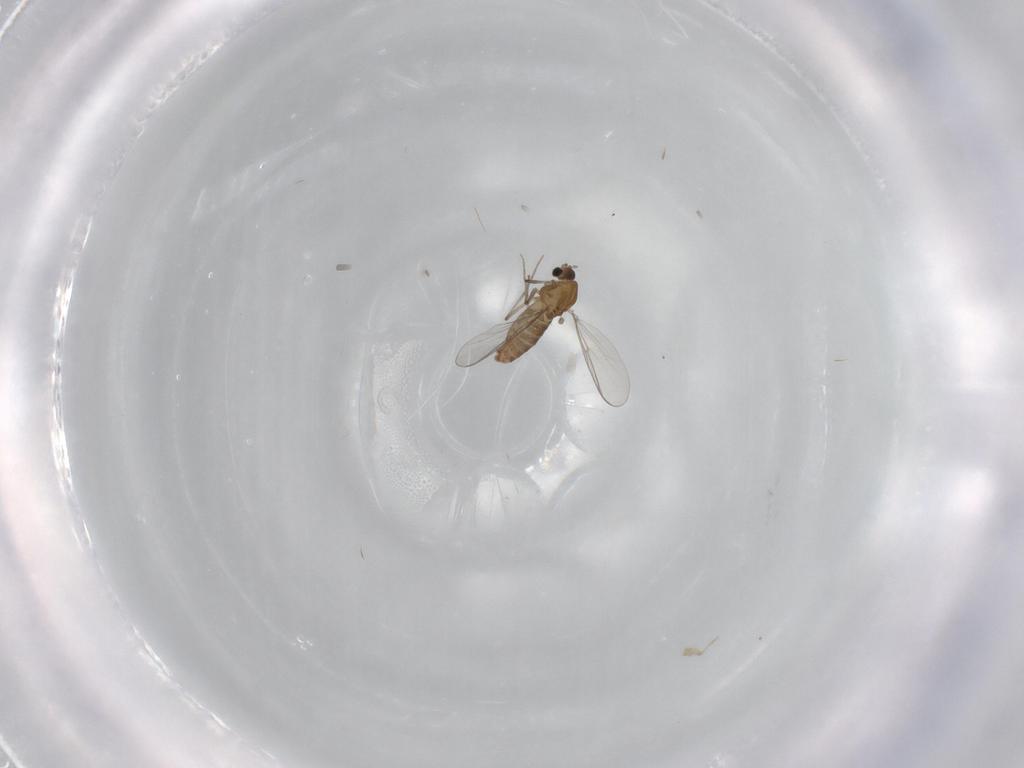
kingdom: Animalia
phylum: Arthropoda
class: Insecta
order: Diptera
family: Chironomidae
